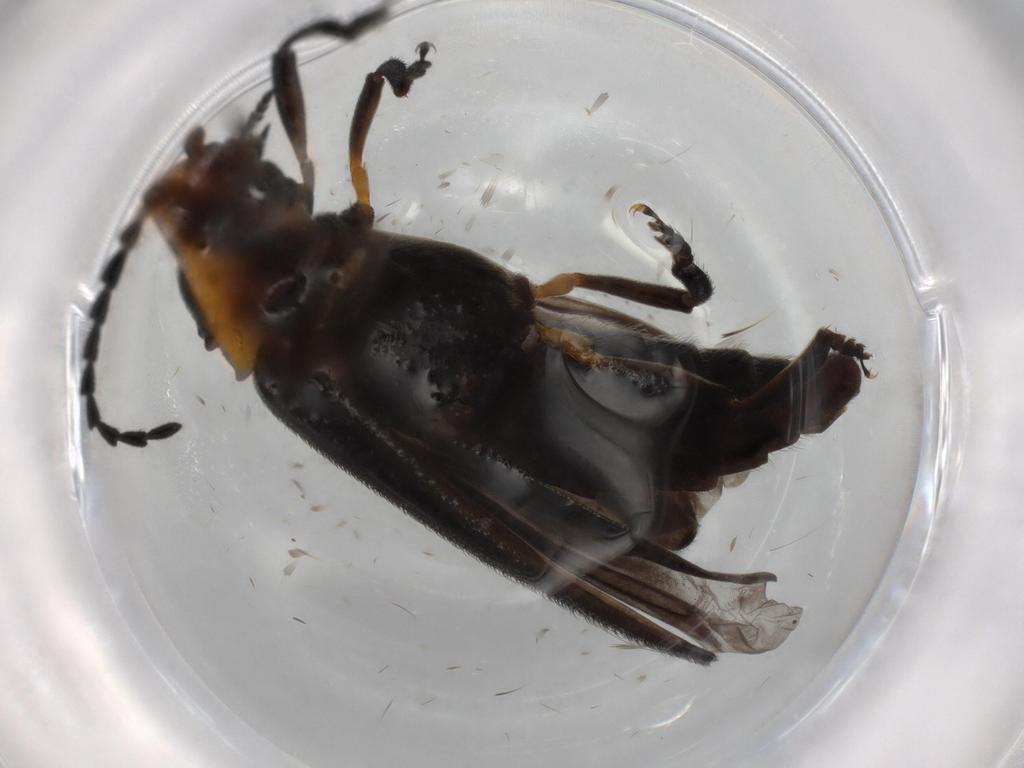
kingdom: Animalia
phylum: Arthropoda
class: Insecta
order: Coleoptera
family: Lycidae
